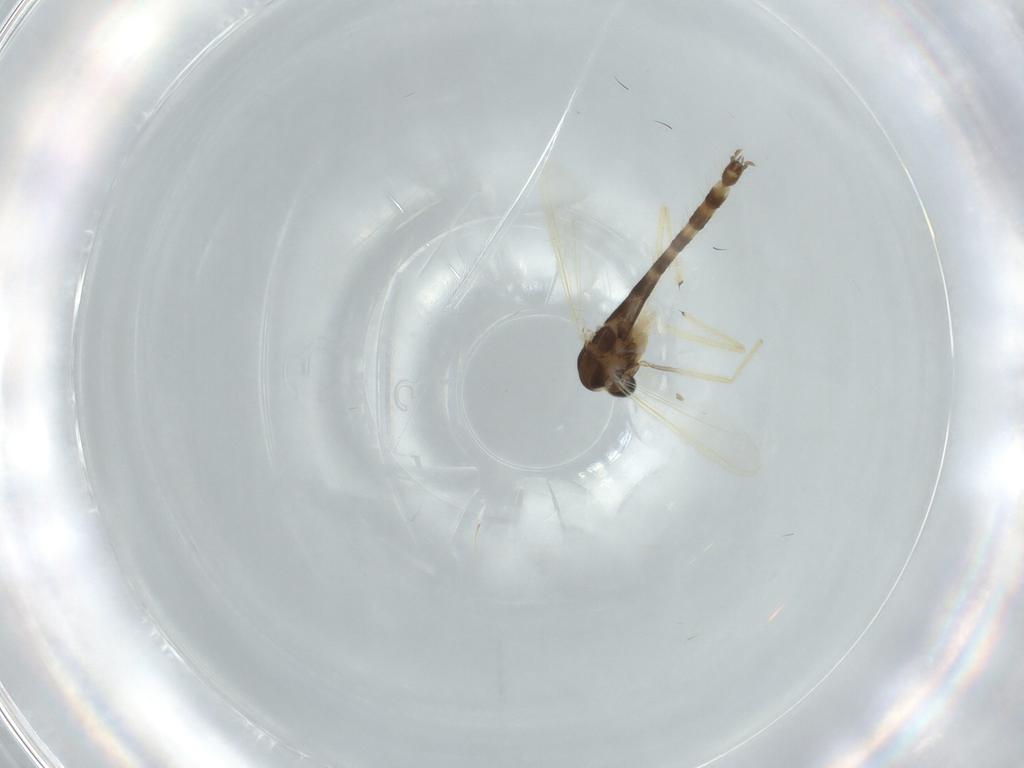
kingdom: Animalia
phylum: Arthropoda
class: Insecta
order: Diptera
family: Chironomidae
